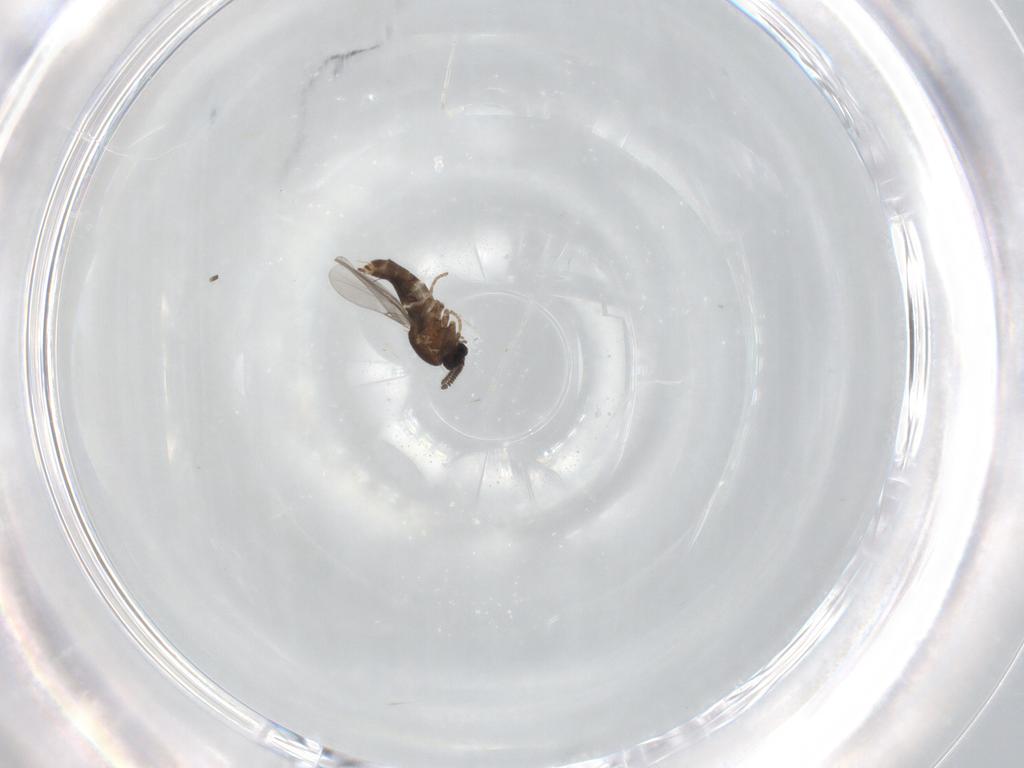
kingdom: Animalia
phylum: Arthropoda
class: Insecta
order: Diptera
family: Scatopsidae
